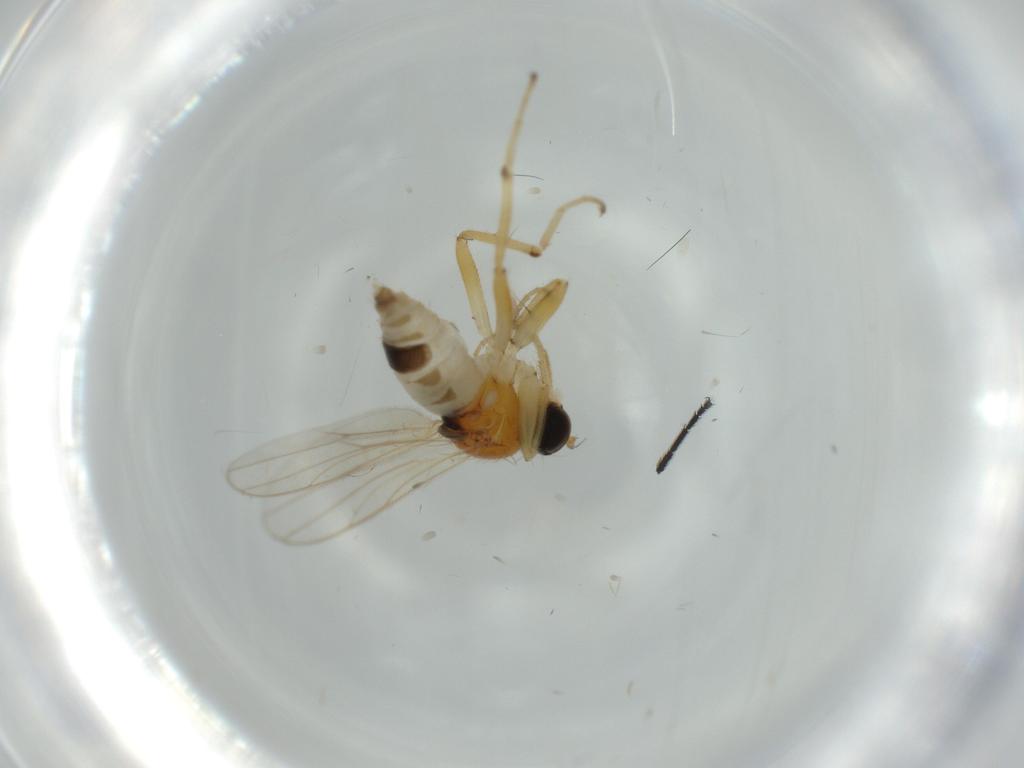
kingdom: Animalia
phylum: Arthropoda
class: Insecta
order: Diptera
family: Hybotidae
